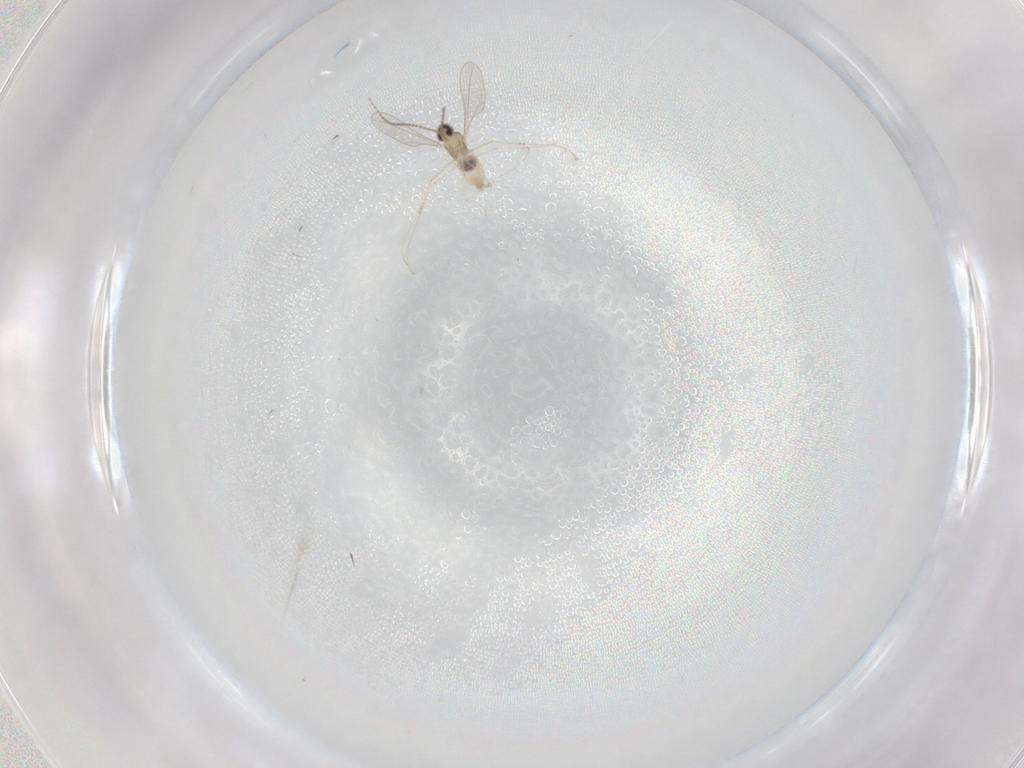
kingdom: Animalia
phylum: Arthropoda
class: Insecta
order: Diptera
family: Cecidomyiidae
